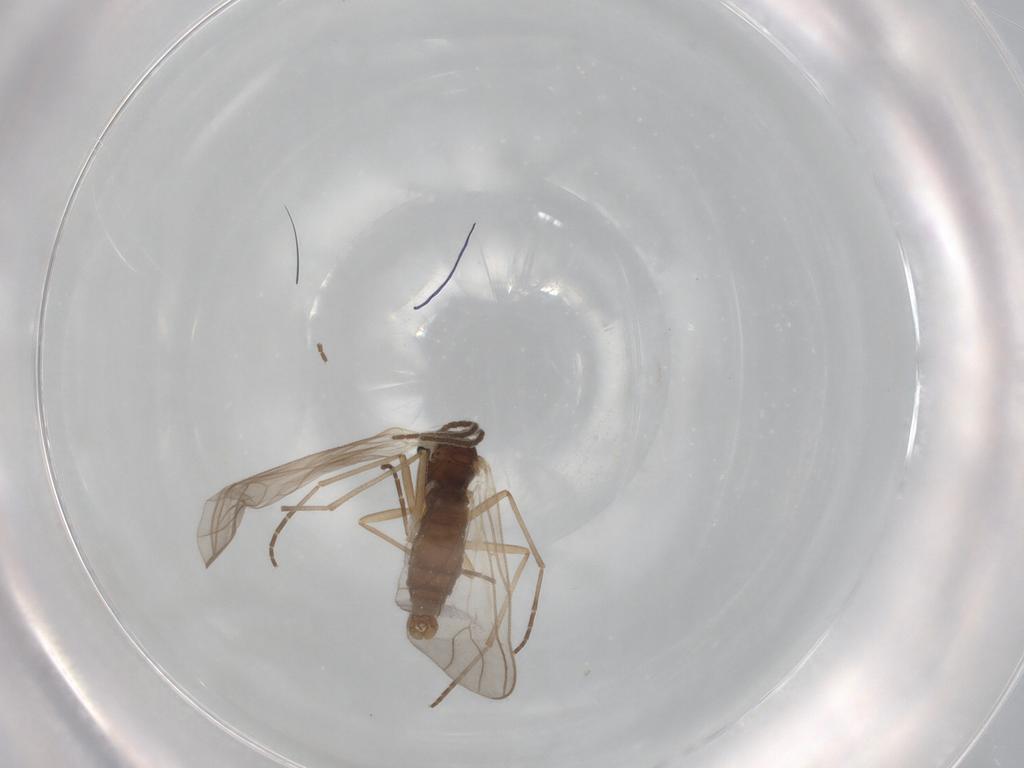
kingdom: Animalia
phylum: Arthropoda
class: Insecta
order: Diptera
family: Sciaridae
